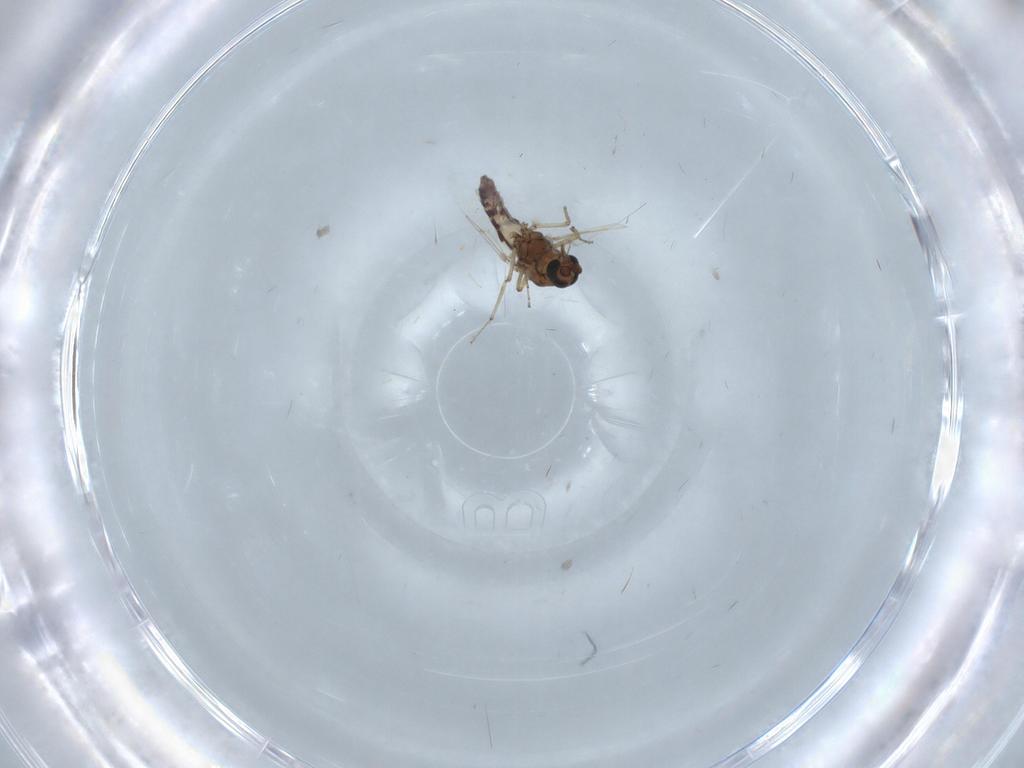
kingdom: Animalia
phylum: Arthropoda
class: Insecta
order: Diptera
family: Ceratopogonidae
